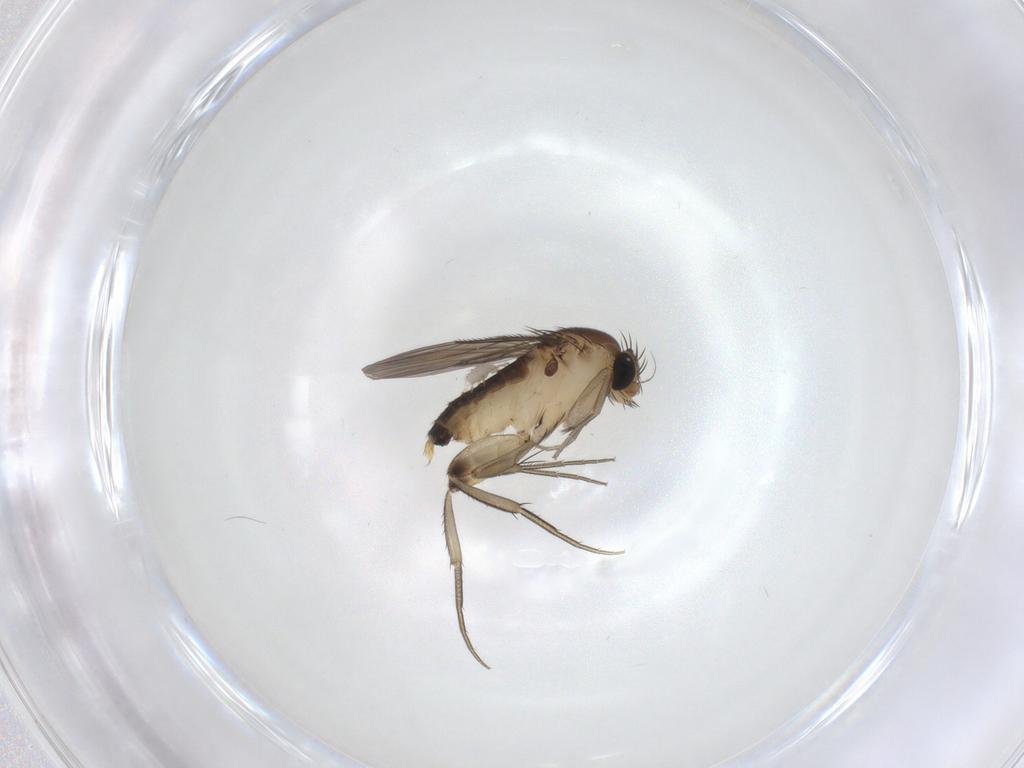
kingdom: Animalia
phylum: Arthropoda
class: Insecta
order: Diptera
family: Phoridae
